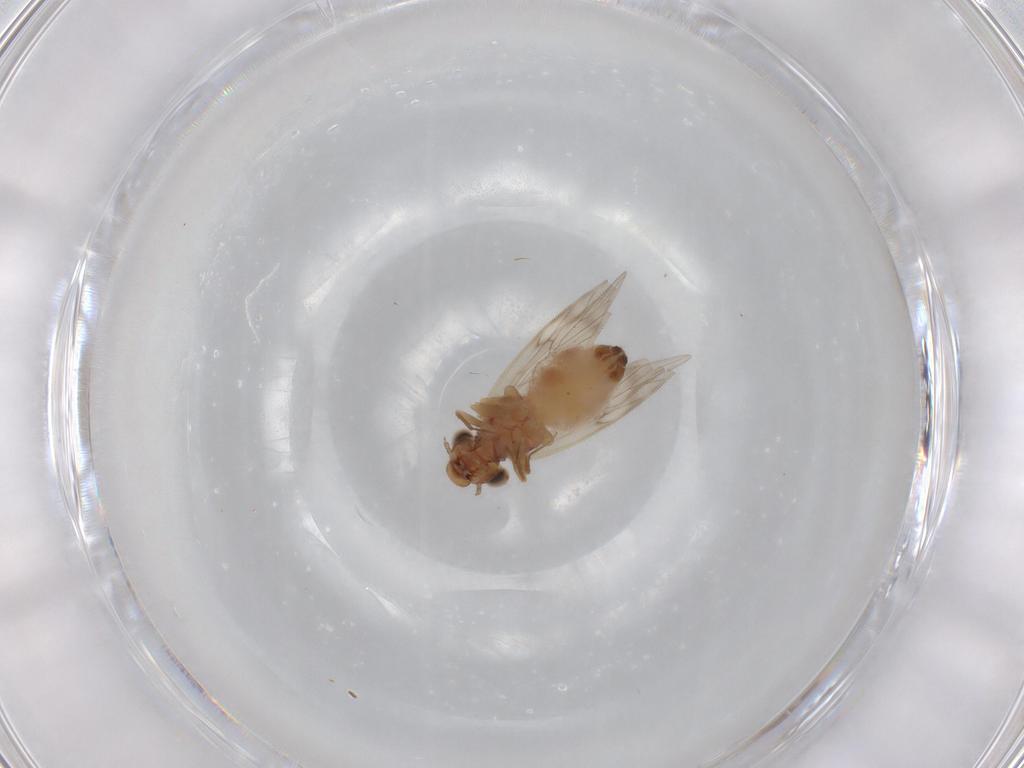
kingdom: Animalia
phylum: Arthropoda
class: Insecta
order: Psocodea
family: Lepidopsocidae
